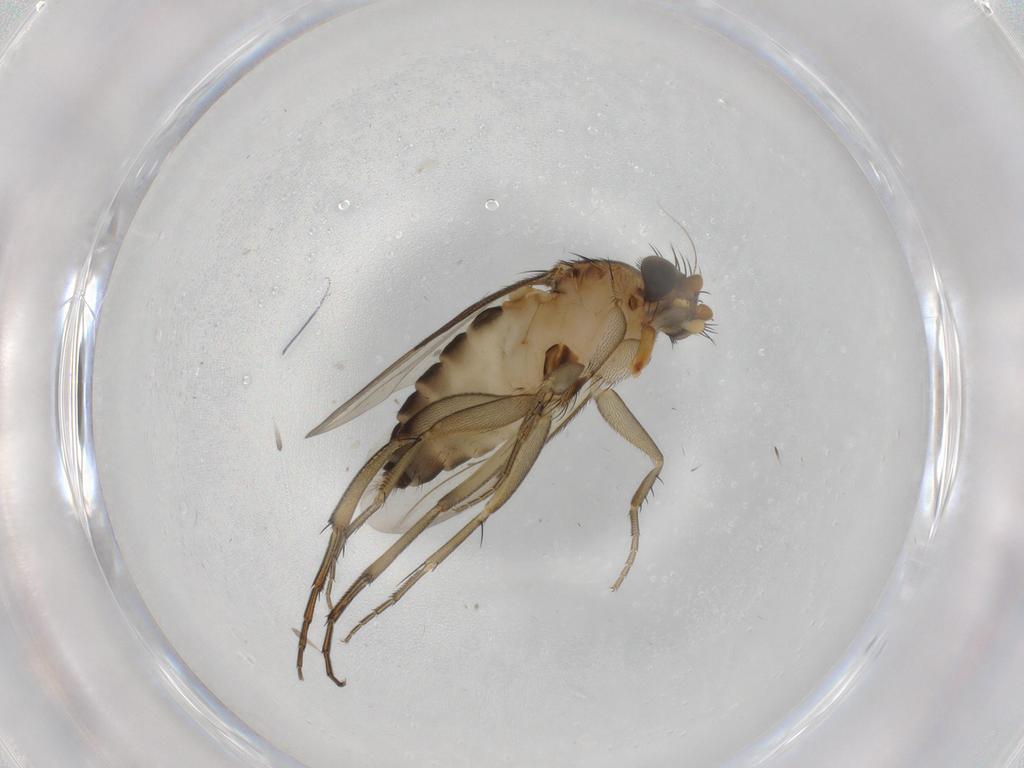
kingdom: Animalia
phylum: Arthropoda
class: Insecta
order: Diptera
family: Phoridae
